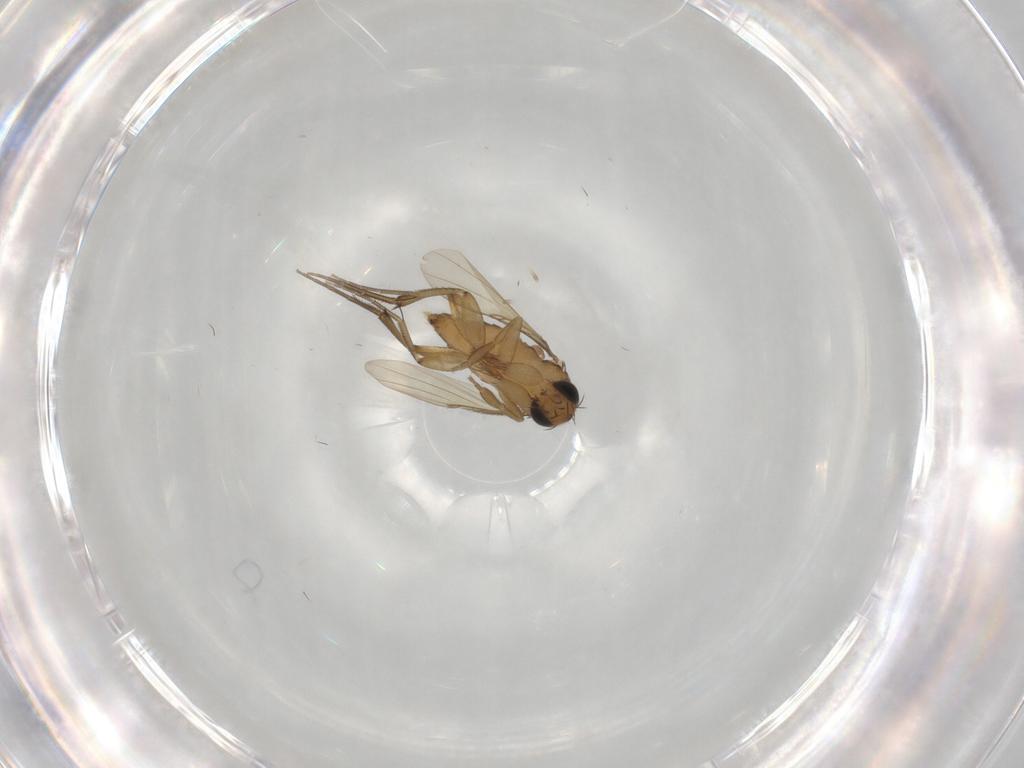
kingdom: Animalia
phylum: Arthropoda
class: Insecta
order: Diptera
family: Phoridae
